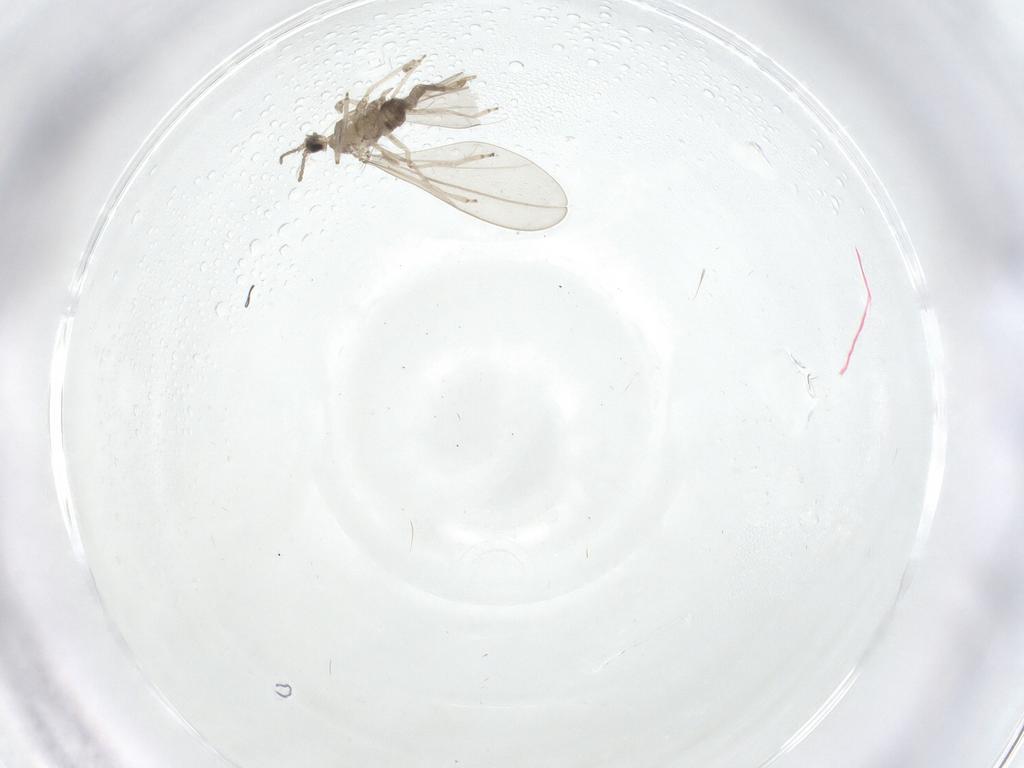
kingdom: Animalia
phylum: Arthropoda
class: Insecta
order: Diptera
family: Cecidomyiidae
